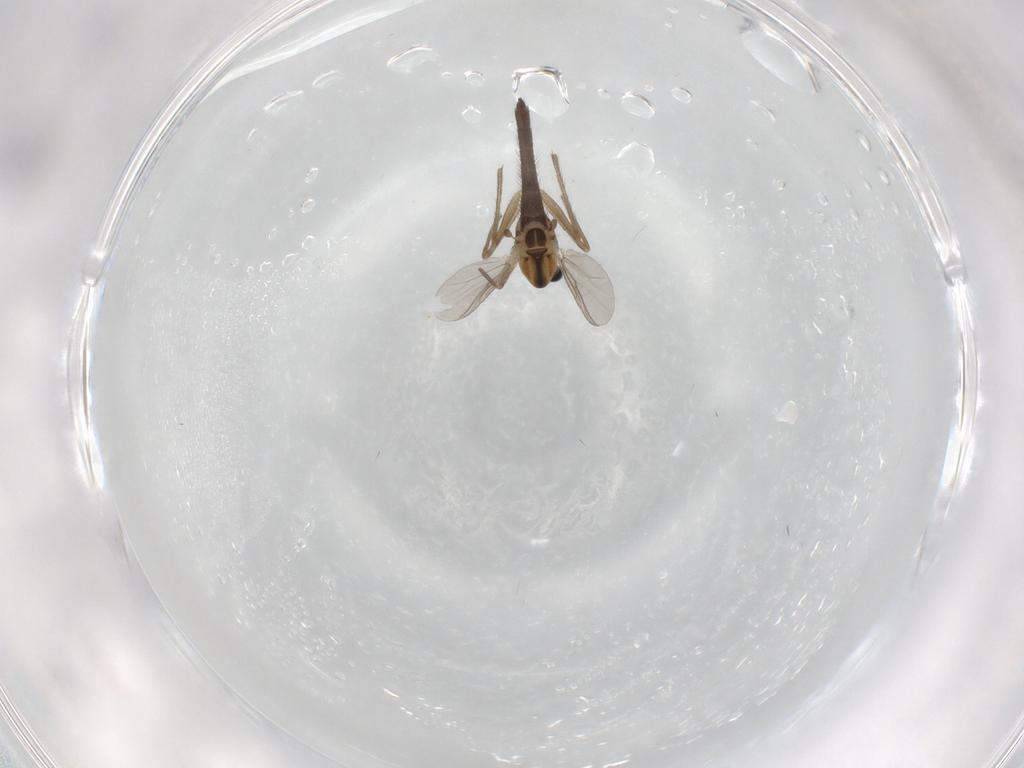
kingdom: Animalia
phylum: Arthropoda
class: Insecta
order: Diptera
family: Chironomidae
